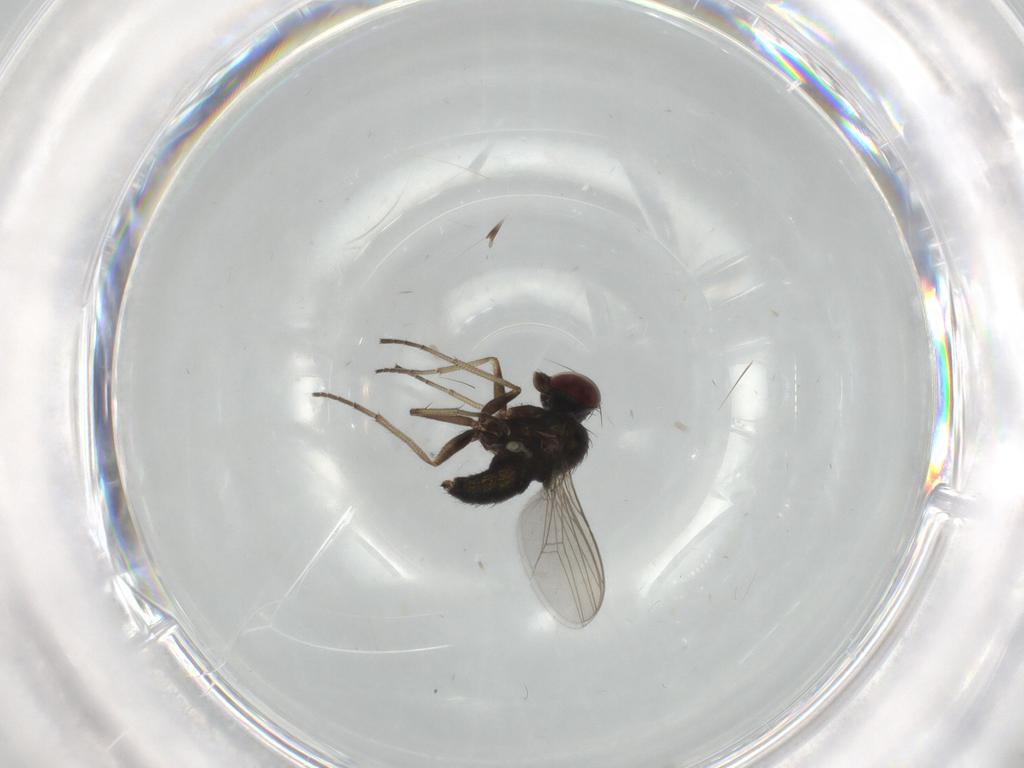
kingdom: Animalia
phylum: Arthropoda
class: Insecta
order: Diptera
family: Dolichopodidae
